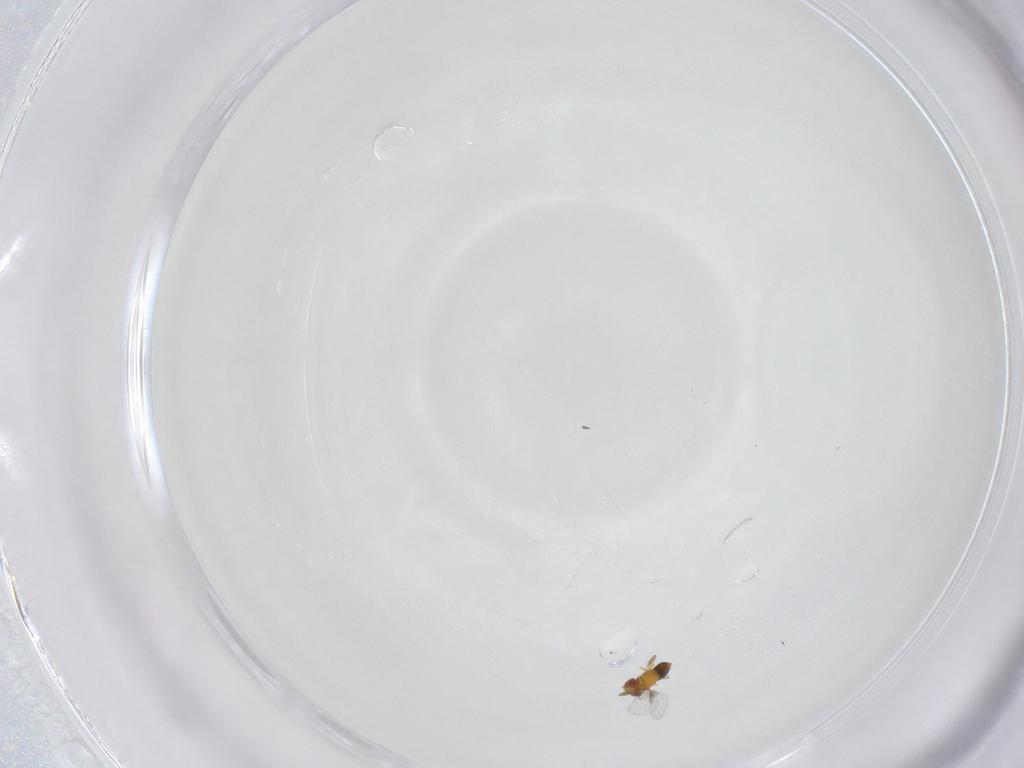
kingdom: Animalia
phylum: Arthropoda
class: Insecta
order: Hymenoptera
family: Trichogrammatidae
